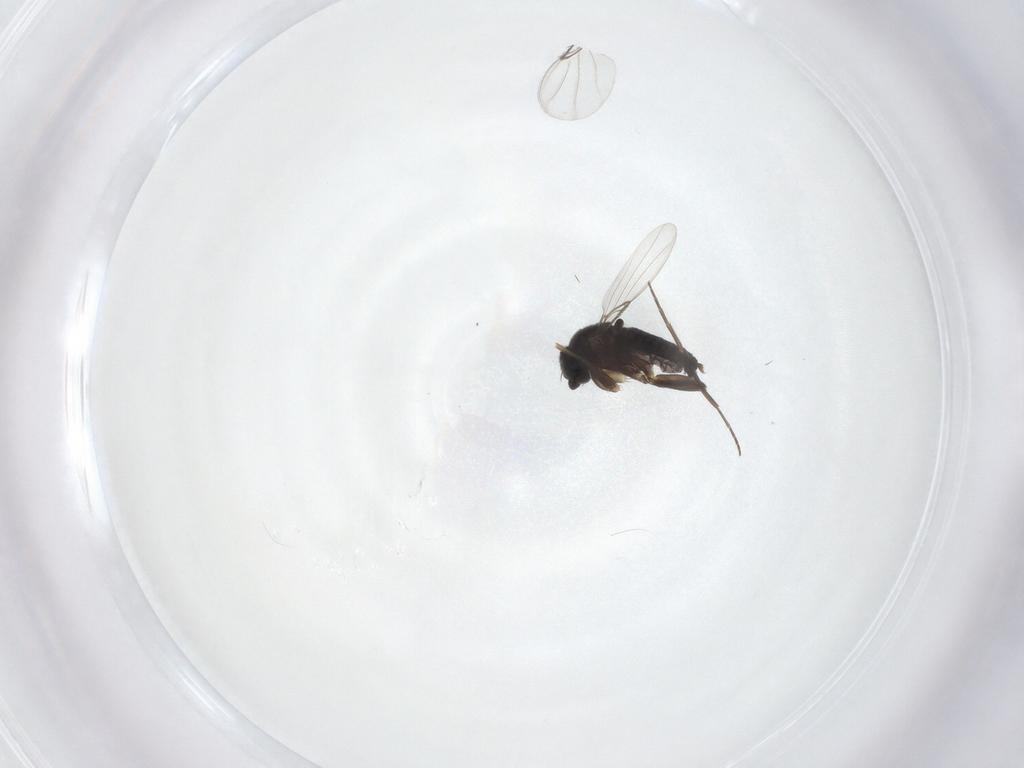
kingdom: Animalia
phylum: Arthropoda
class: Insecta
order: Diptera
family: Phoridae
